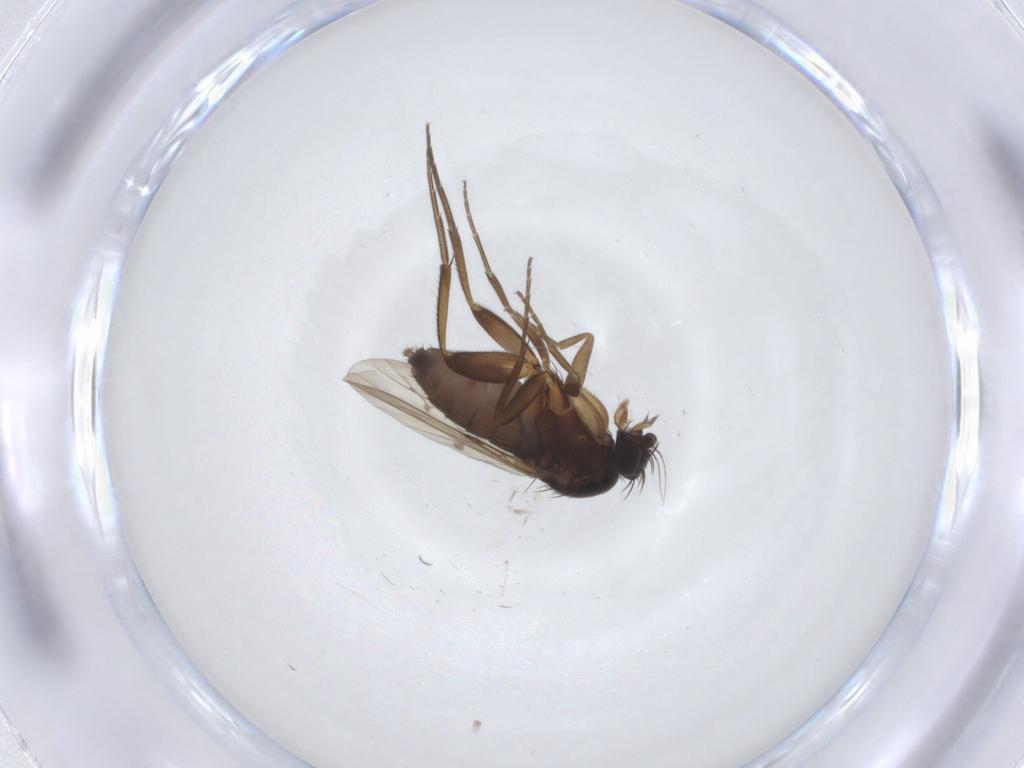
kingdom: Animalia
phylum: Arthropoda
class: Insecta
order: Diptera
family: Phoridae
